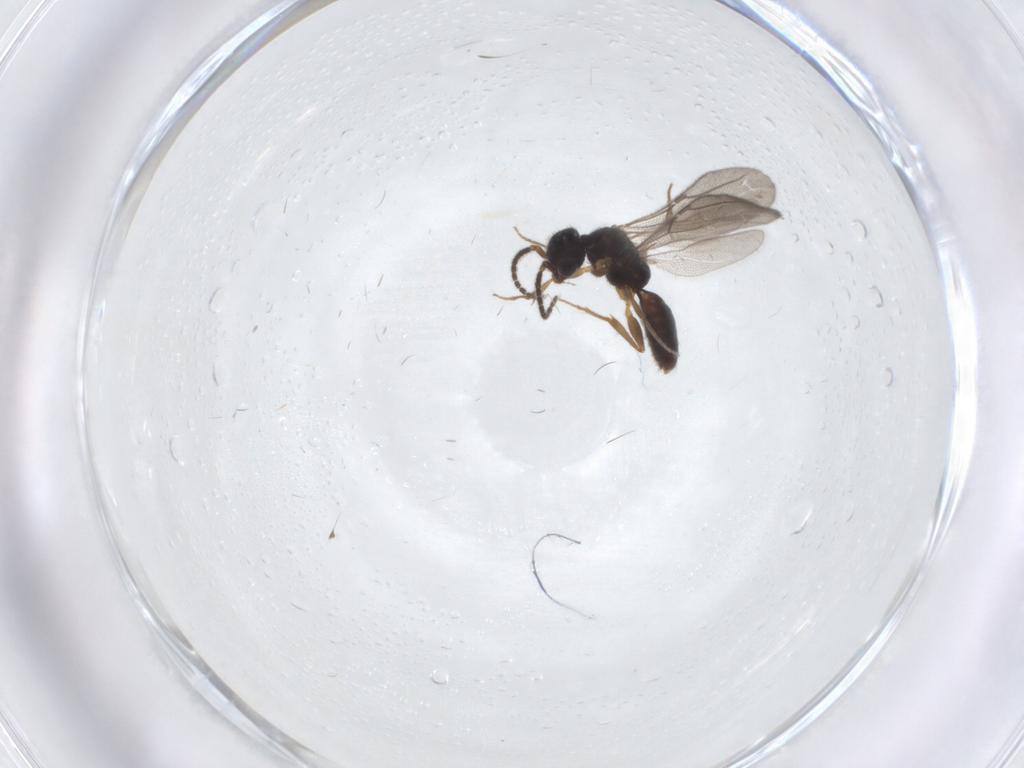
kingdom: Animalia
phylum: Arthropoda
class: Insecta
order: Hymenoptera
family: Bethylidae
